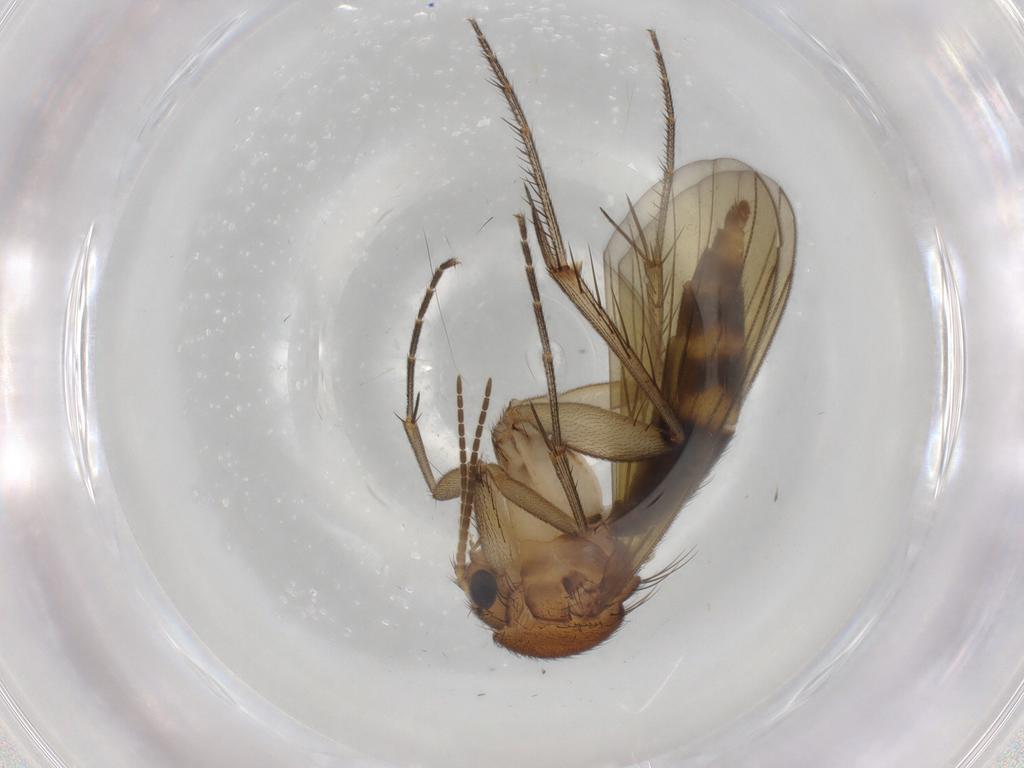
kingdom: Animalia
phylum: Arthropoda
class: Insecta
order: Diptera
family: Mycetophilidae
